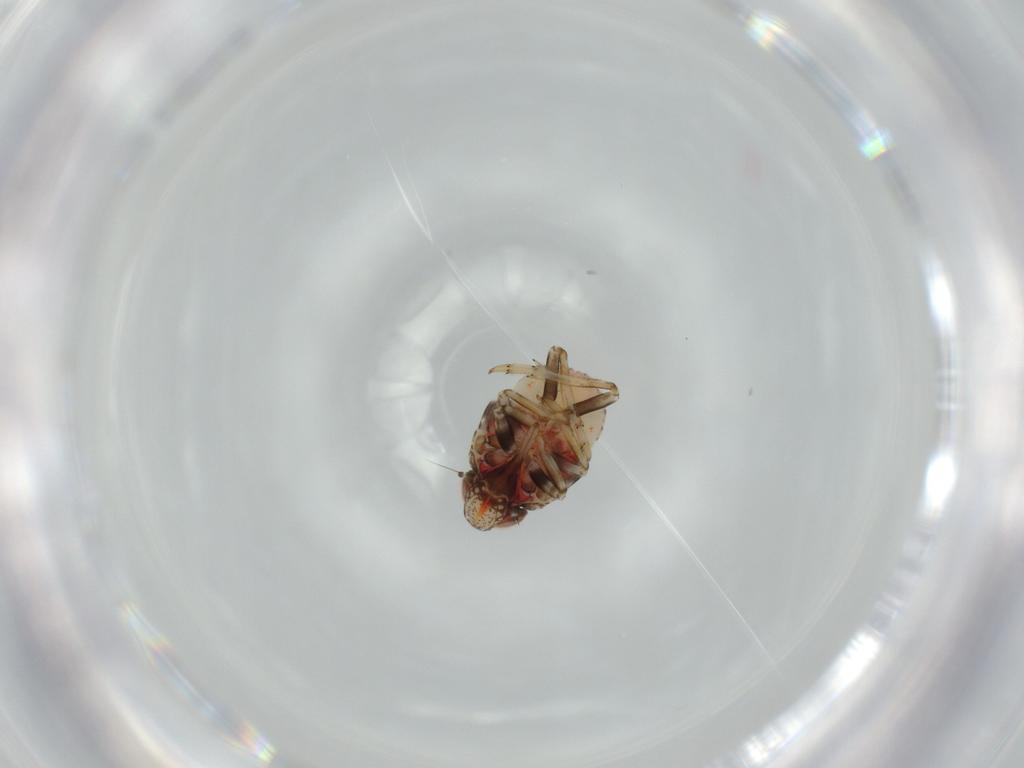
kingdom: Animalia
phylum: Arthropoda
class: Insecta
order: Hemiptera
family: Issidae
